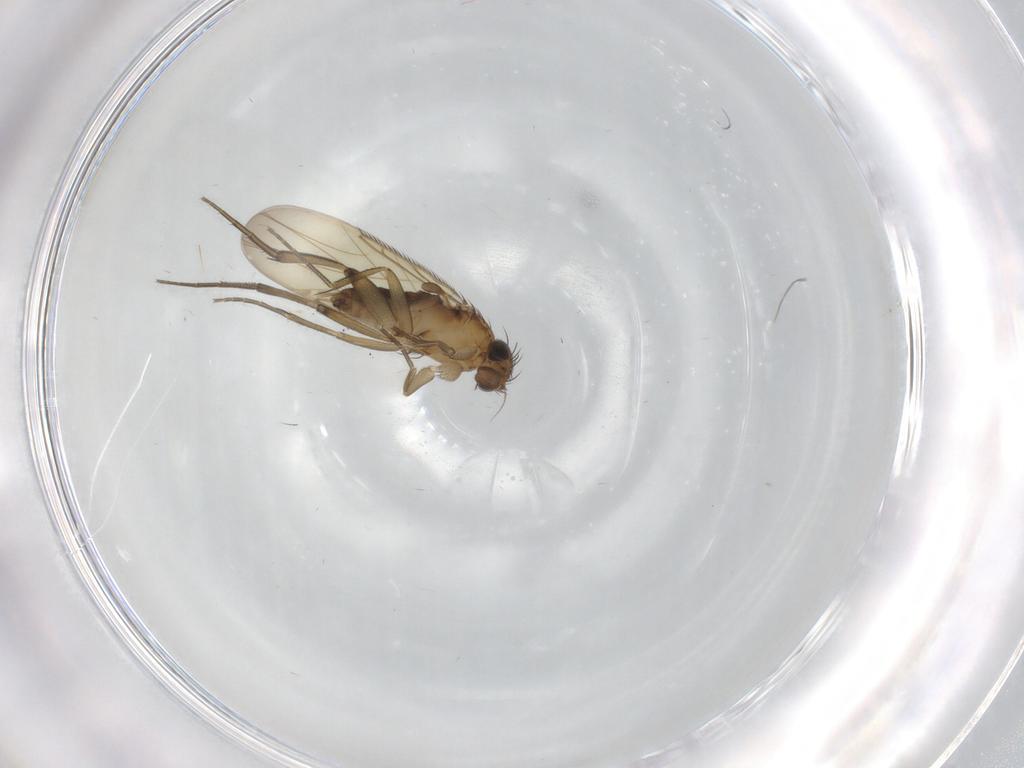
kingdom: Animalia
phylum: Arthropoda
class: Insecta
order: Diptera
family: Phoridae
